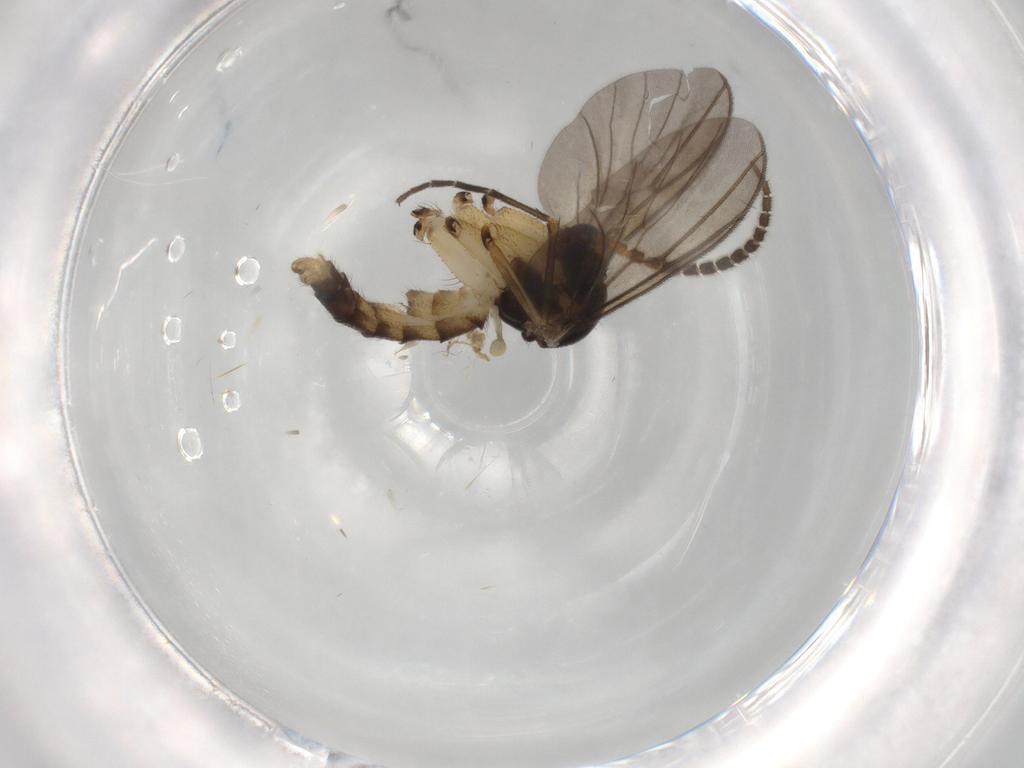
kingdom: Animalia
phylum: Arthropoda
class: Insecta
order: Diptera
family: Mycetophilidae
